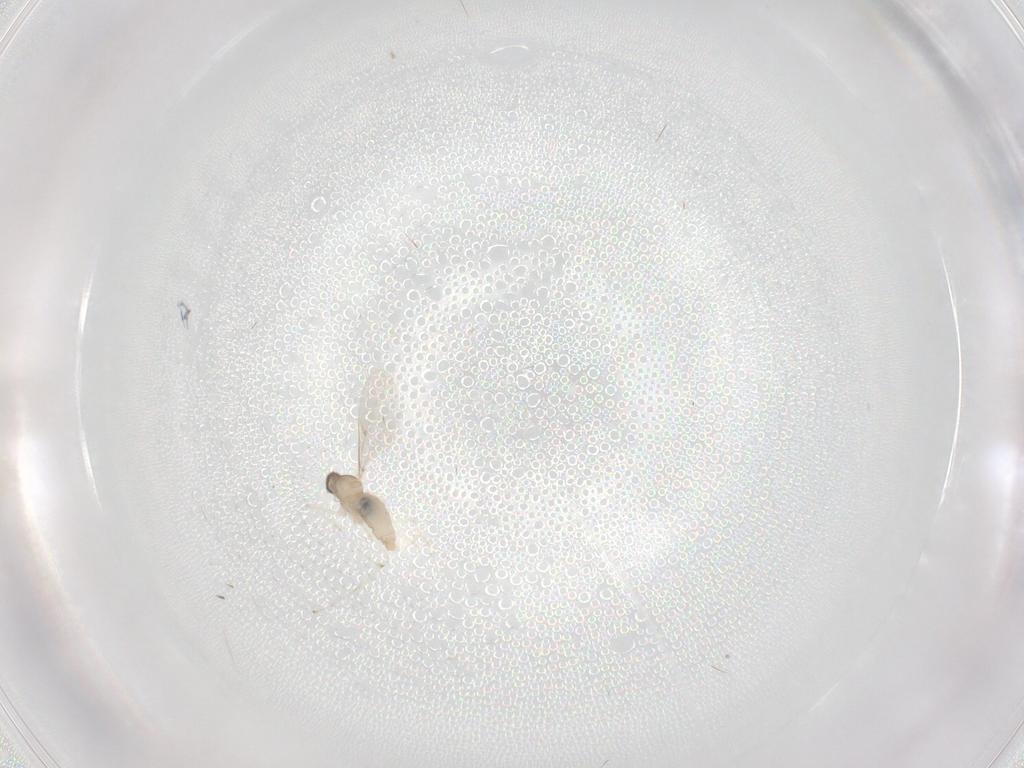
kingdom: Animalia
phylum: Arthropoda
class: Insecta
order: Diptera
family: Cecidomyiidae
